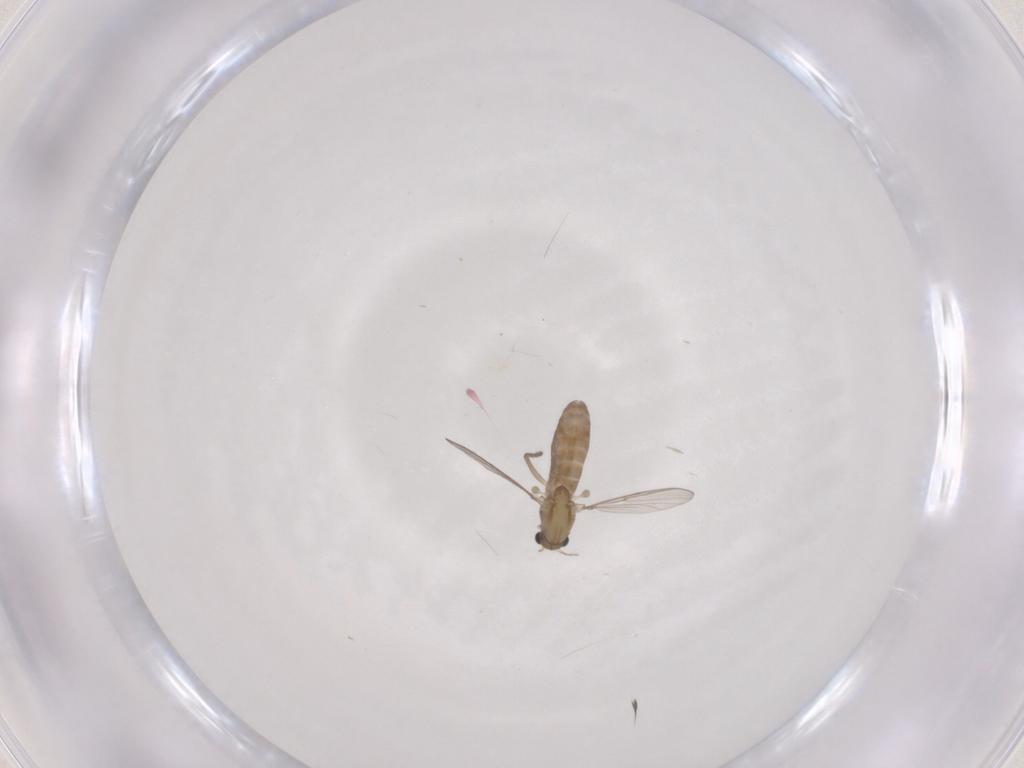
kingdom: Animalia
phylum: Arthropoda
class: Insecta
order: Diptera
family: Chironomidae
